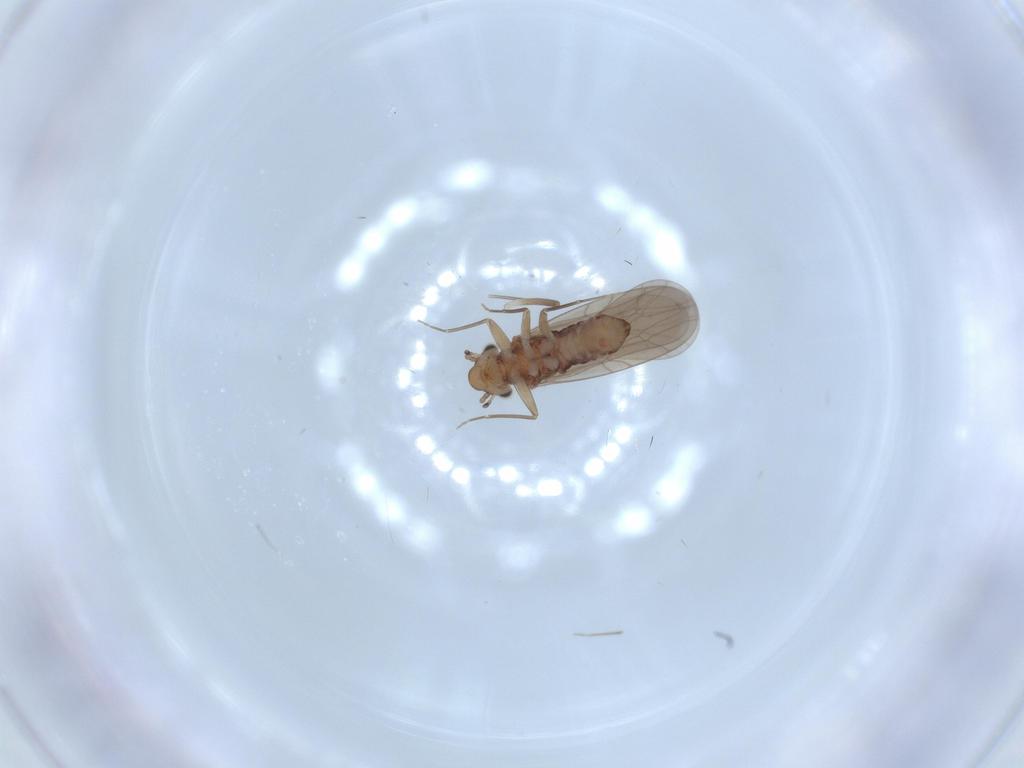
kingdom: Animalia
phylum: Arthropoda
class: Insecta
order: Psocodea
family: Lepidopsocidae
